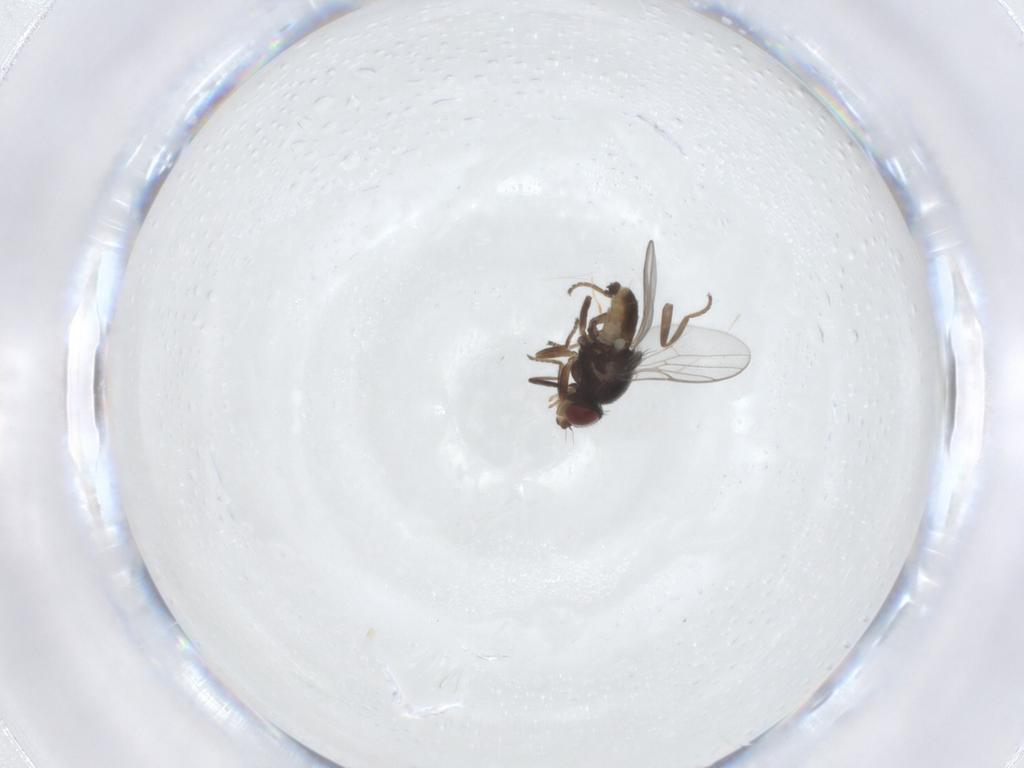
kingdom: Animalia
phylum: Arthropoda
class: Insecta
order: Diptera
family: Chloropidae
